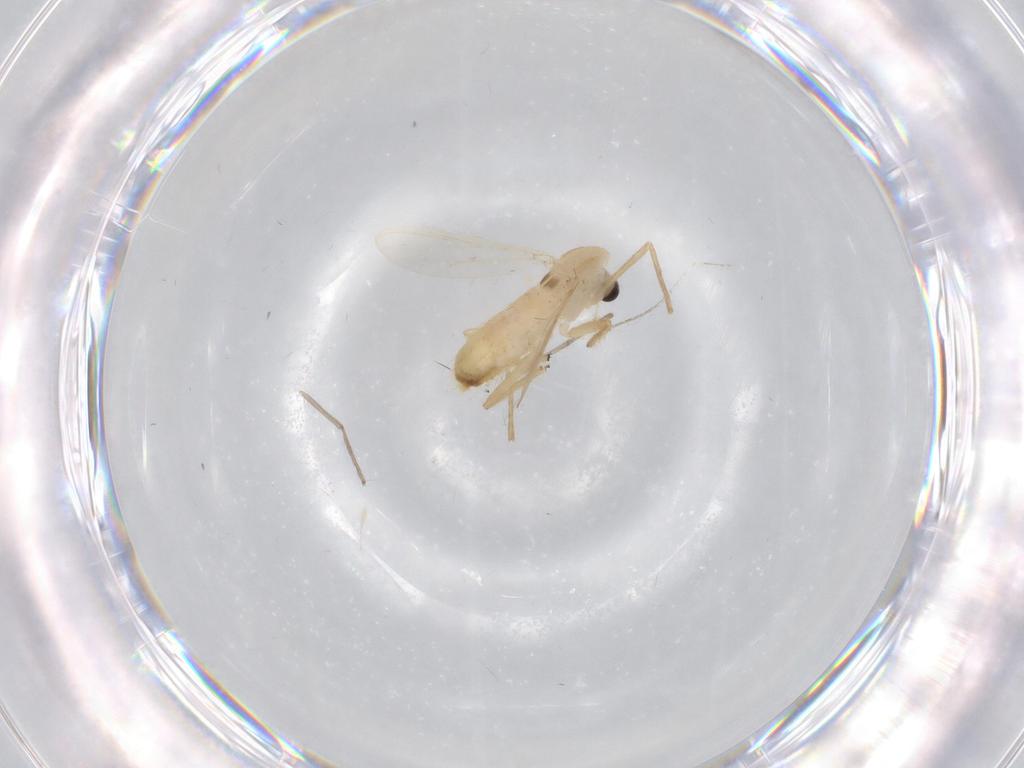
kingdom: Animalia
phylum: Arthropoda
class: Insecta
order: Diptera
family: Chironomidae
